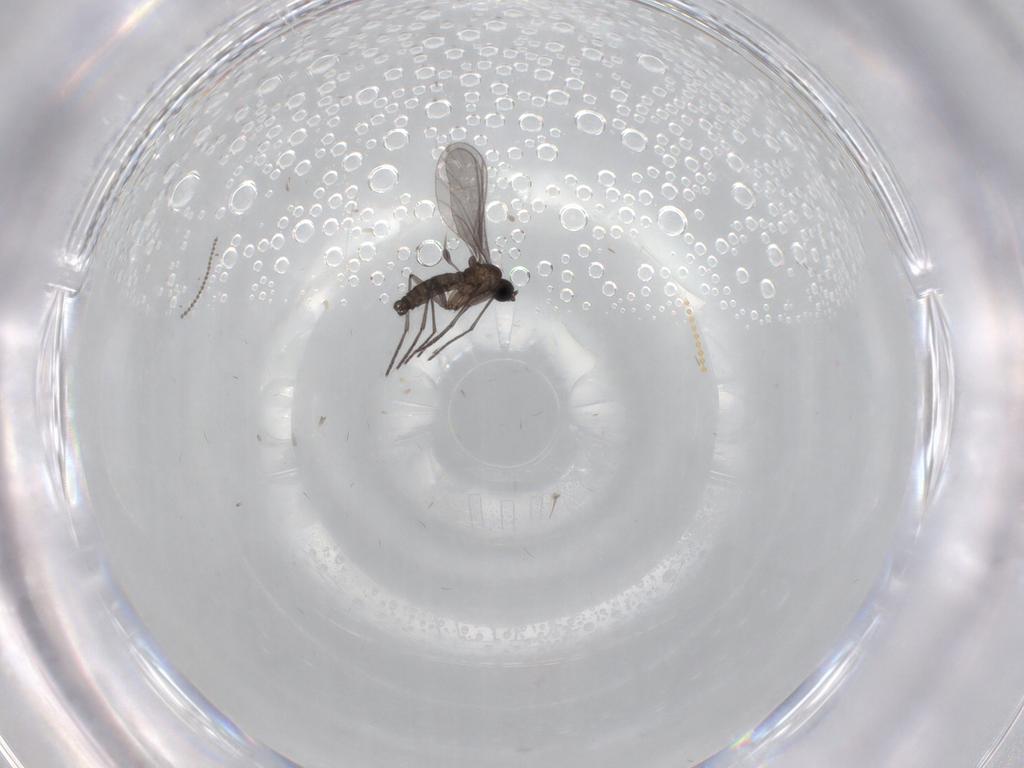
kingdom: Animalia
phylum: Arthropoda
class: Insecta
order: Diptera
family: Cecidomyiidae
